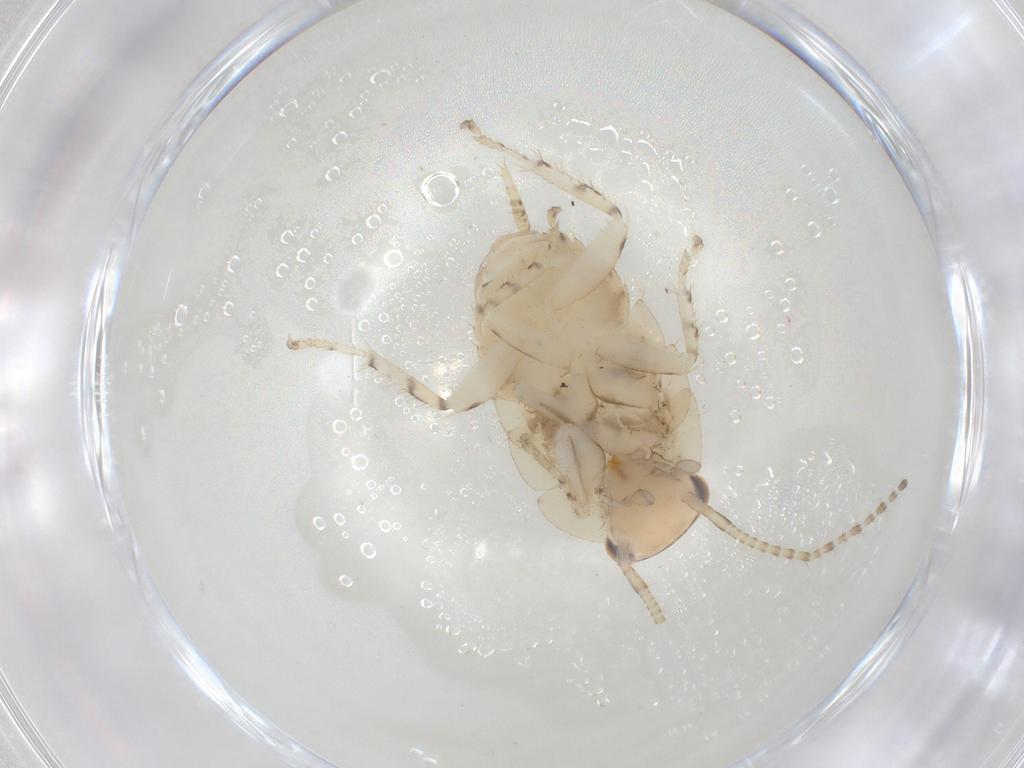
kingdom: Animalia
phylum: Arthropoda
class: Insecta
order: Blattodea
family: Ectobiidae
